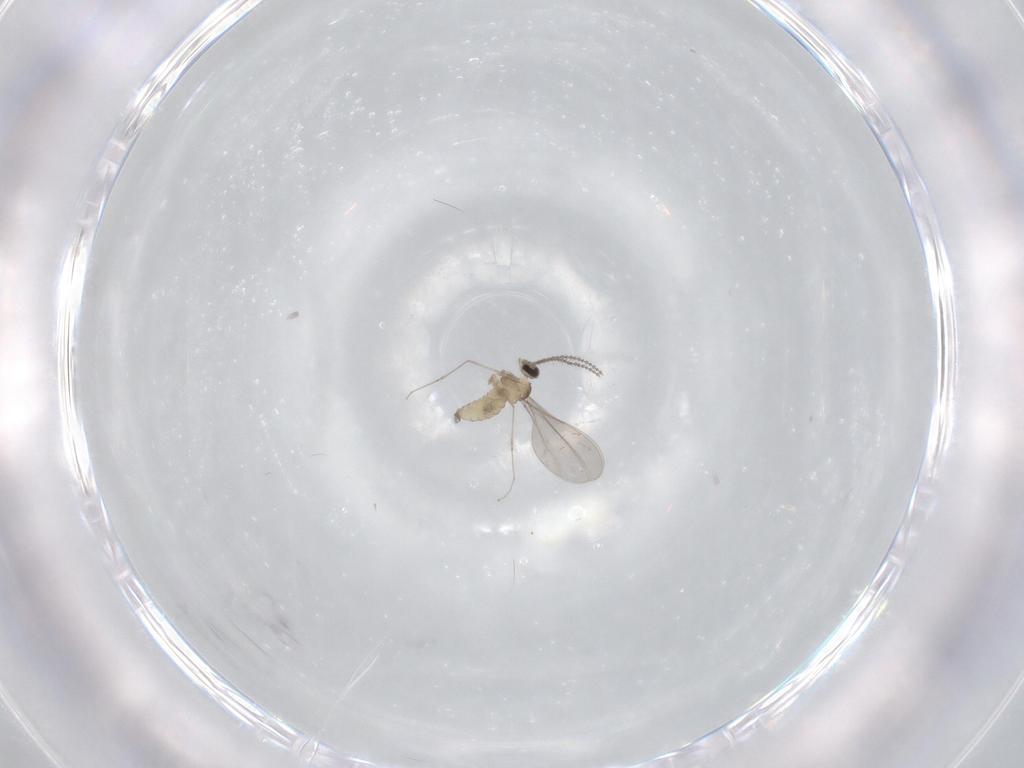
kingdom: Animalia
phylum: Arthropoda
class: Insecta
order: Diptera
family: Cecidomyiidae
